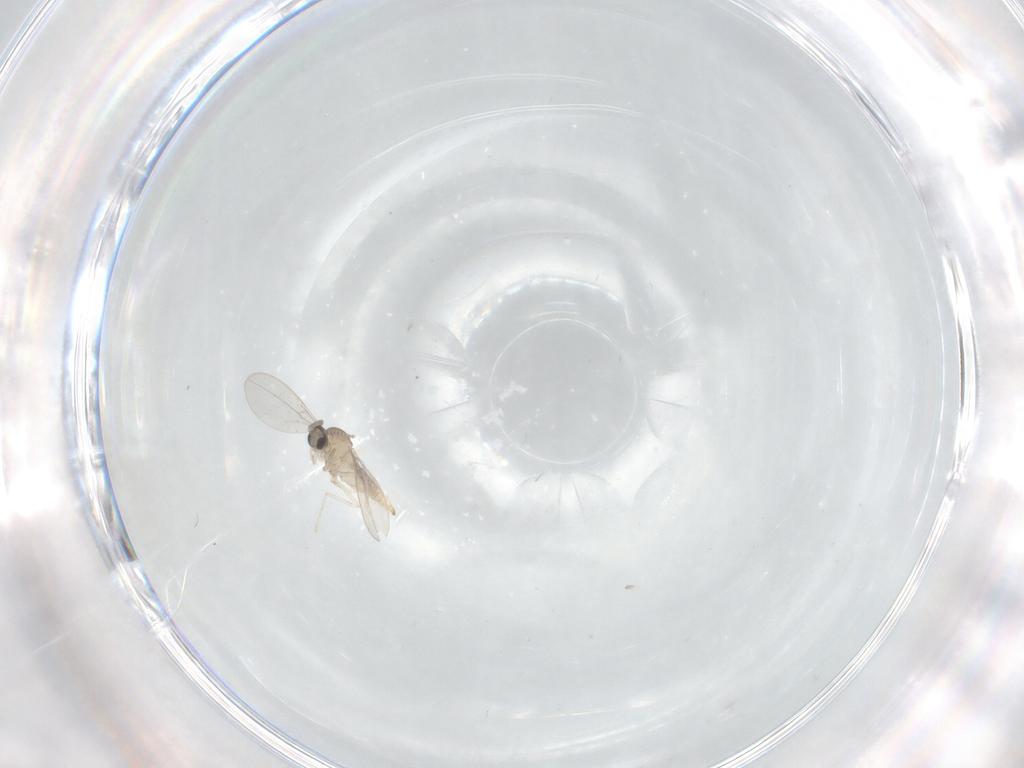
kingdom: Animalia
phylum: Arthropoda
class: Insecta
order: Diptera
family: Cecidomyiidae
